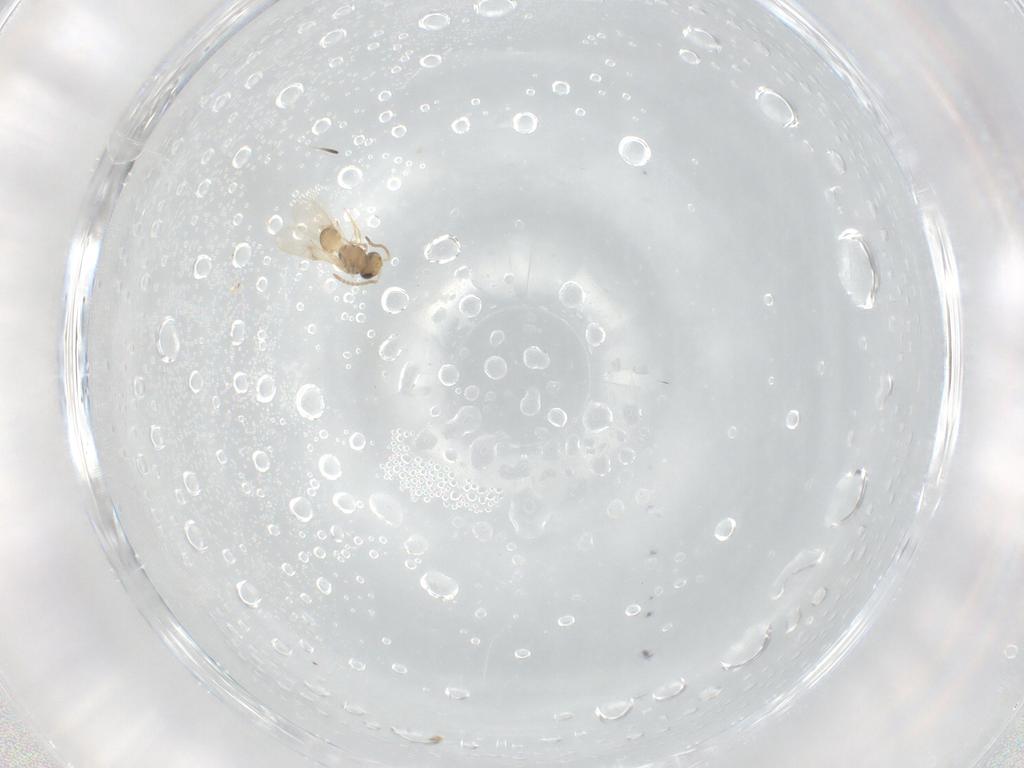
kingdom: Animalia
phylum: Arthropoda
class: Insecta
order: Hymenoptera
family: Scelionidae
